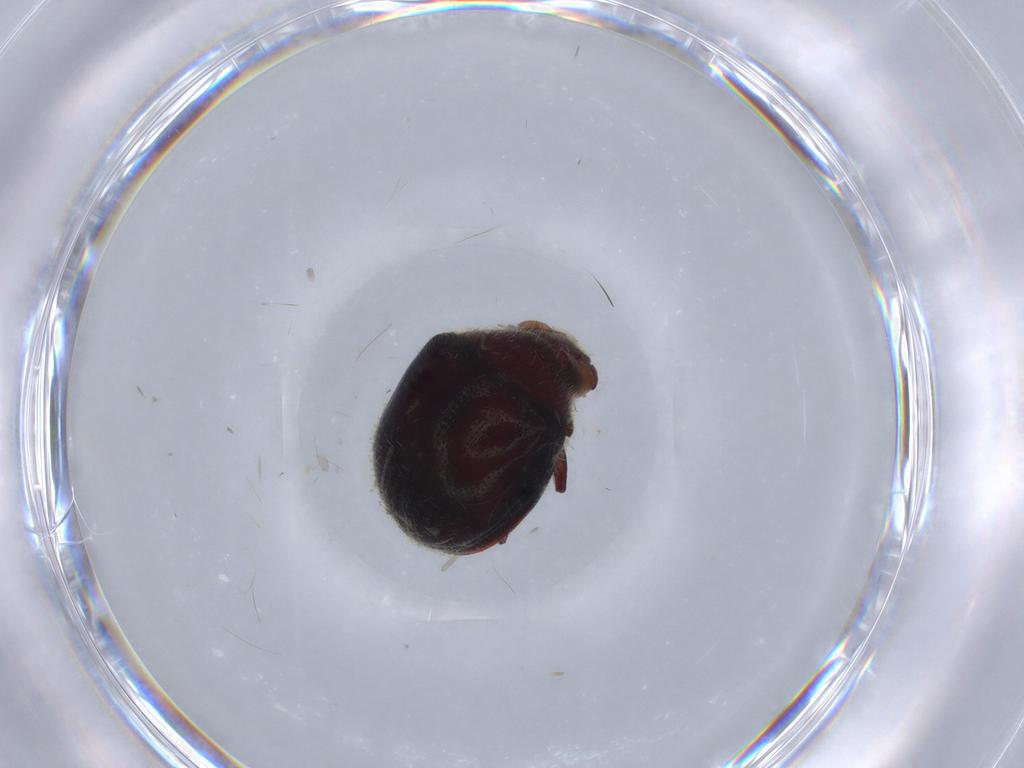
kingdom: Animalia
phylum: Arthropoda
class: Insecta
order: Coleoptera
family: Ptinidae
